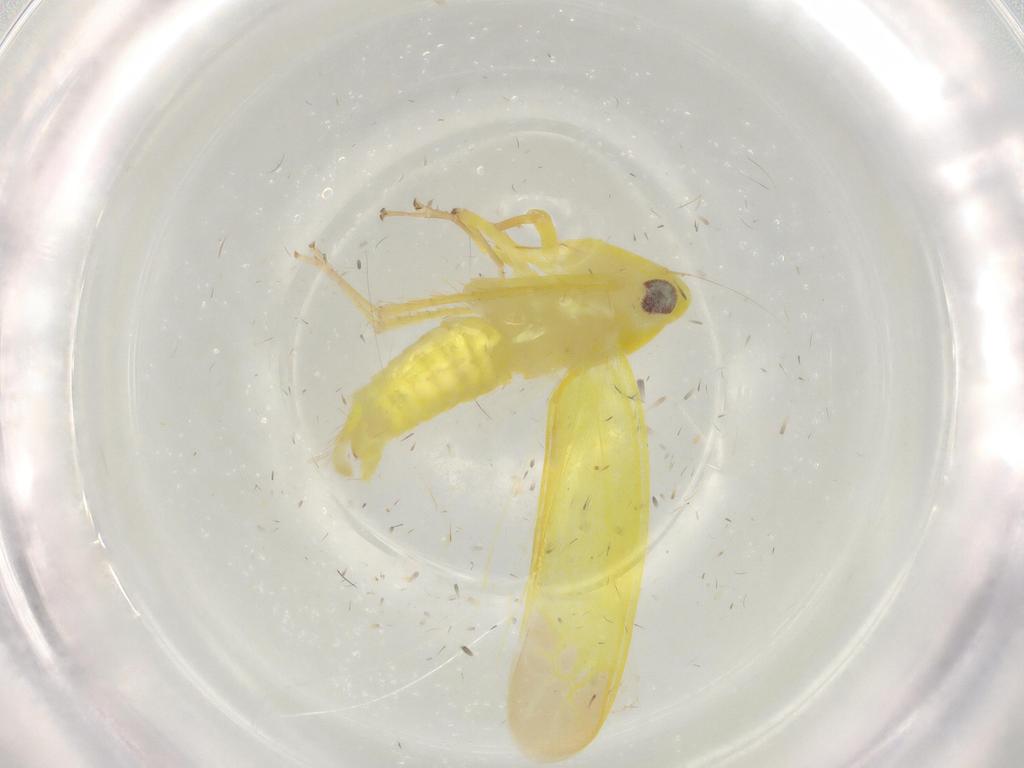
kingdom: Animalia
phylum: Arthropoda
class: Insecta
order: Hemiptera
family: Cicadellidae
